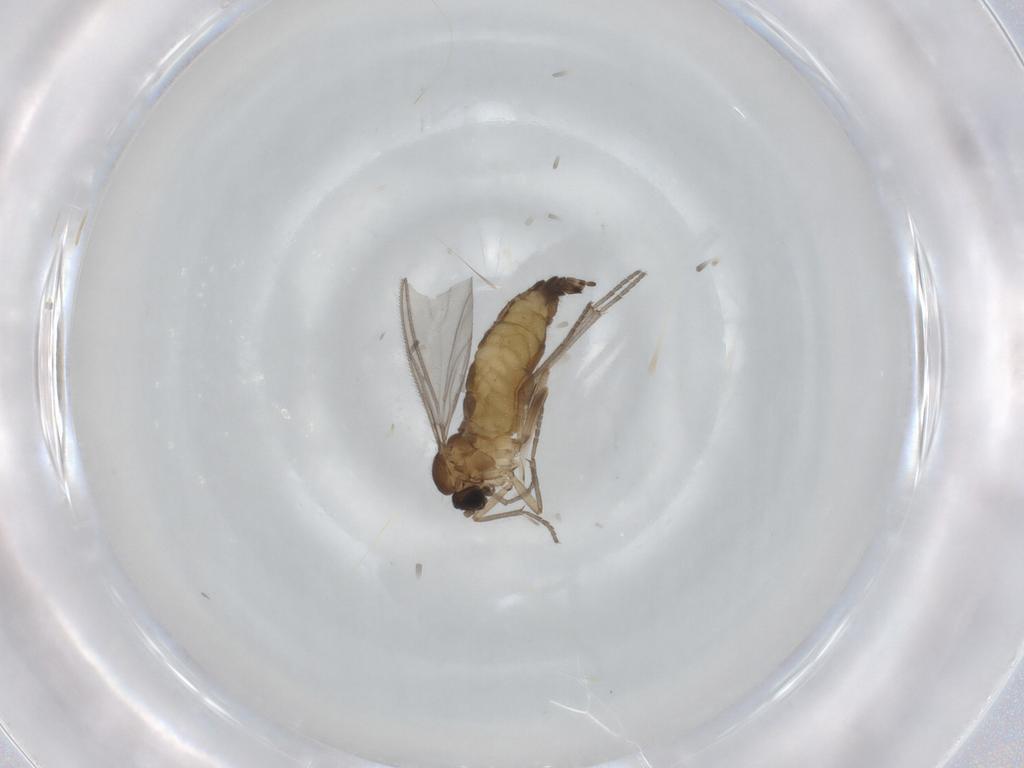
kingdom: Animalia
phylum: Arthropoda
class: Insecta
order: Diptera
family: Sciaridae
